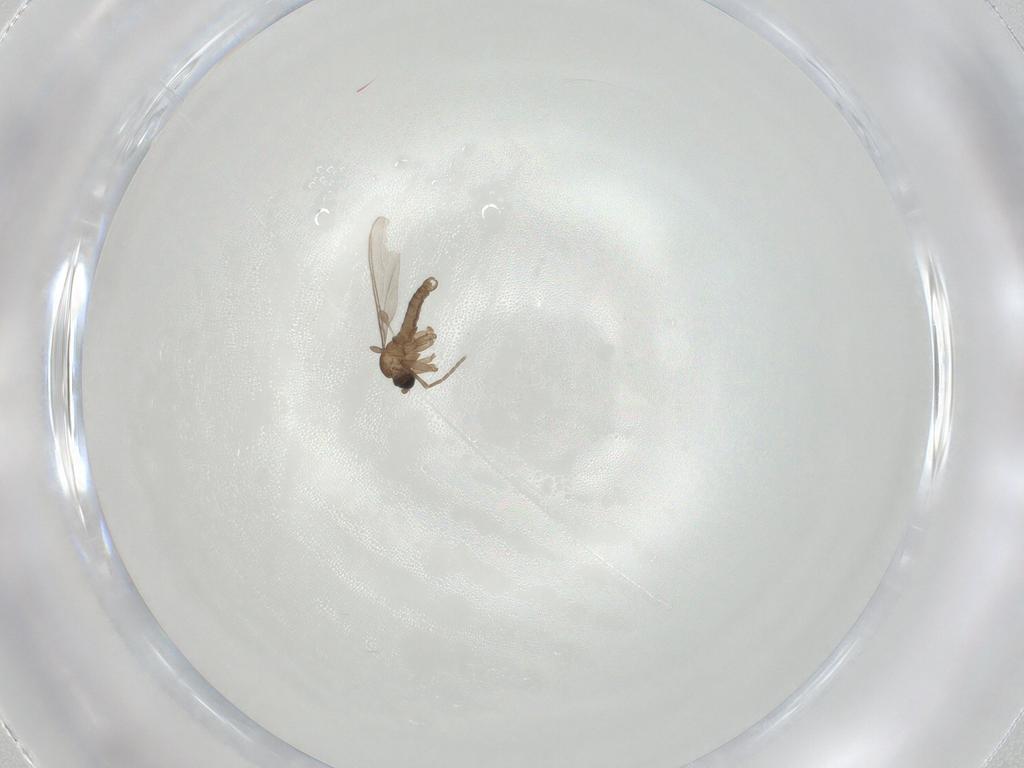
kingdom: Animalia
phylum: Arthropoda
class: Insecta
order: Diptera
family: Sciaridae
